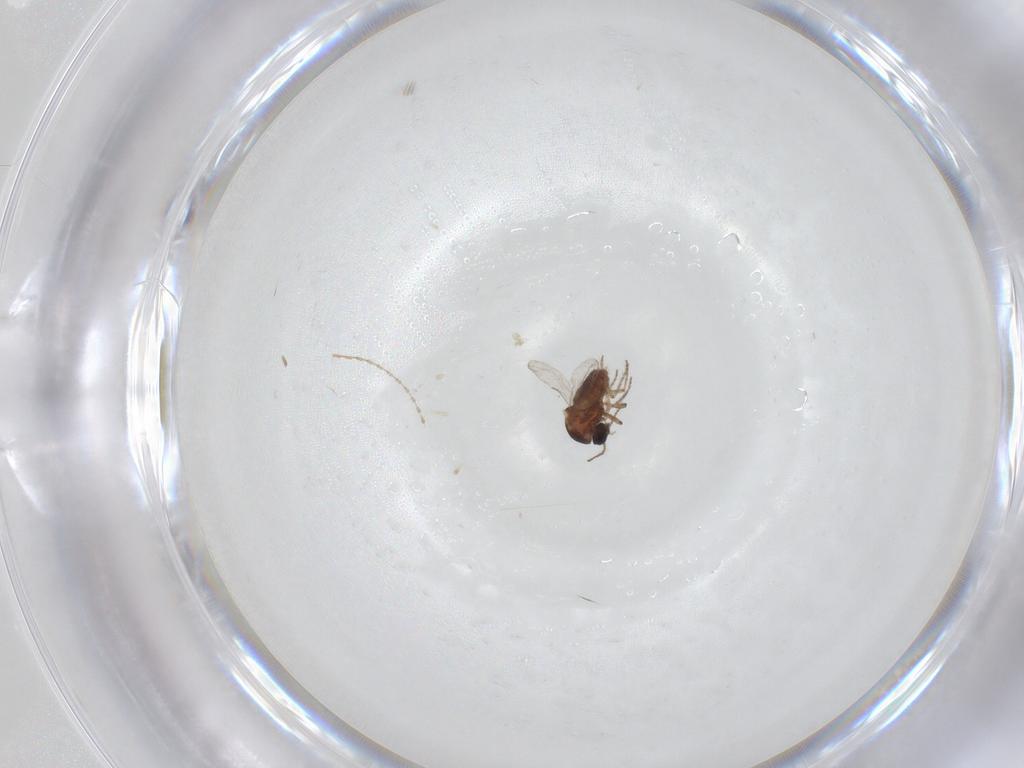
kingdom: Animalia
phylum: Arthropoda
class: Insecta
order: Diptera
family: Ceratopogonidae
